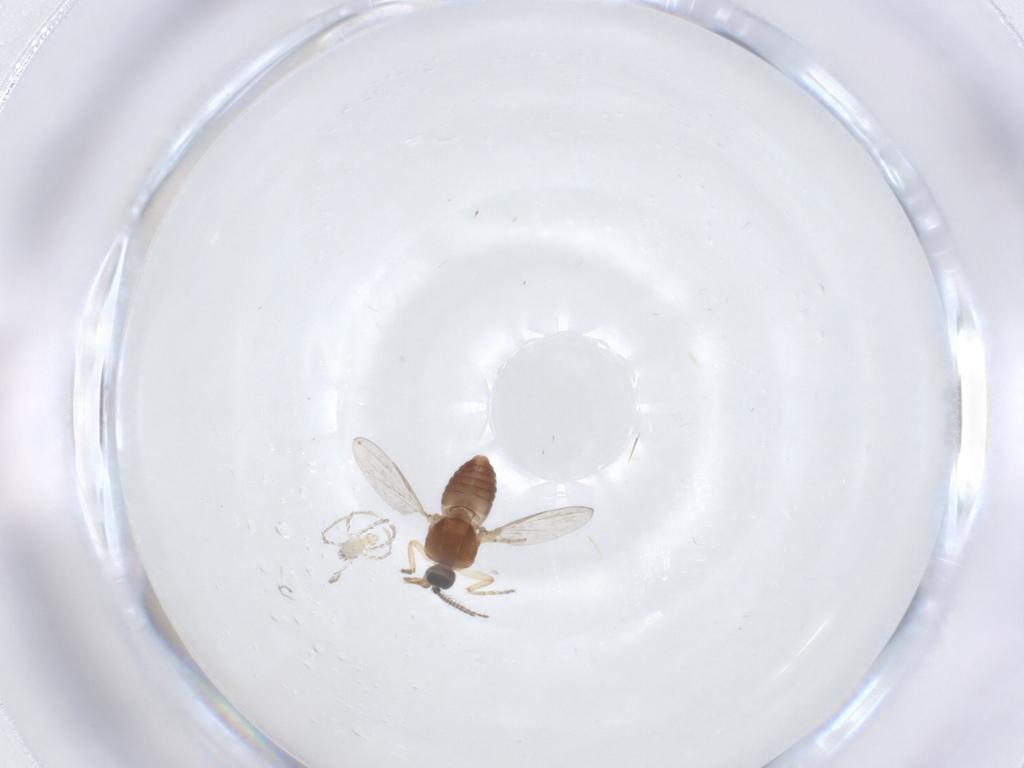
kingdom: Animalia
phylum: Arthropoda
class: Insecta
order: Diptera
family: Ceratopogonidae
